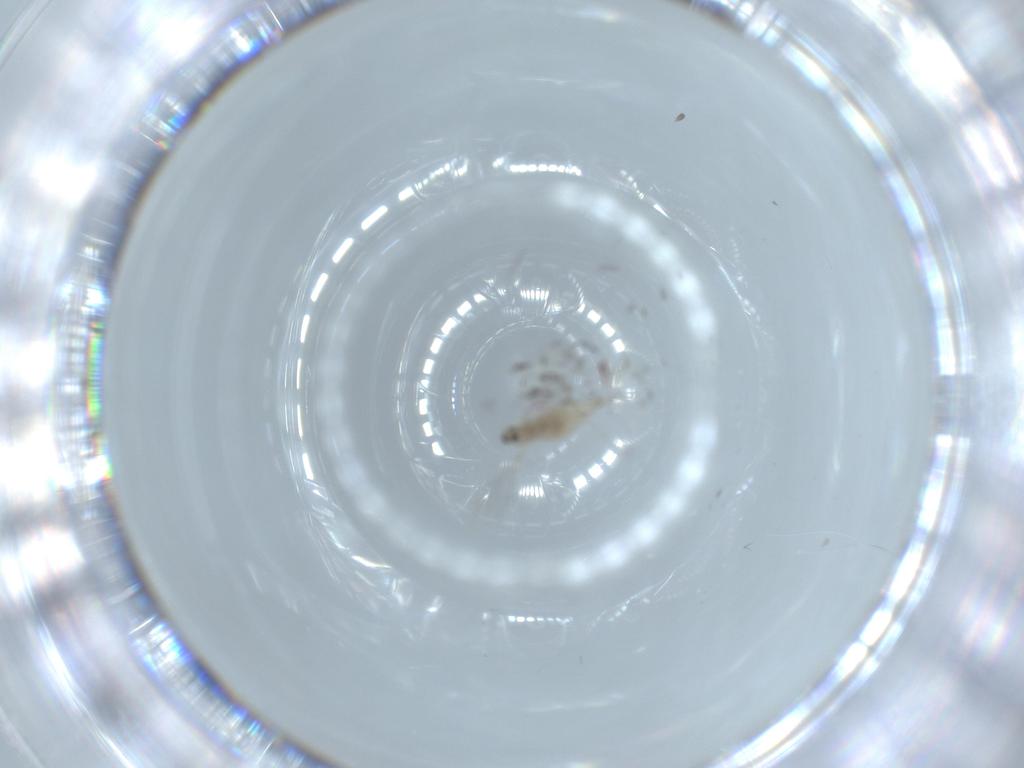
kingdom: Animalia
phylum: Arthropoda
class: Insecta
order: Diptera
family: Cecidomyiidae
